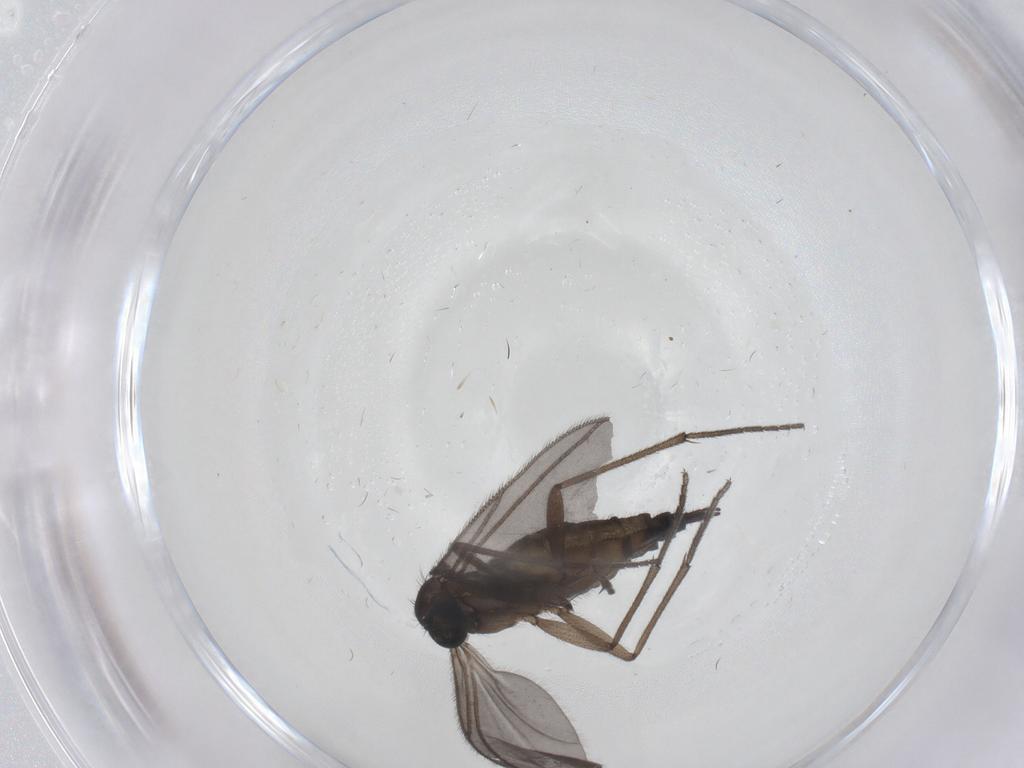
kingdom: Animalia
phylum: Arthropoda
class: Insecta
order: Diptera
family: Sciaridae
